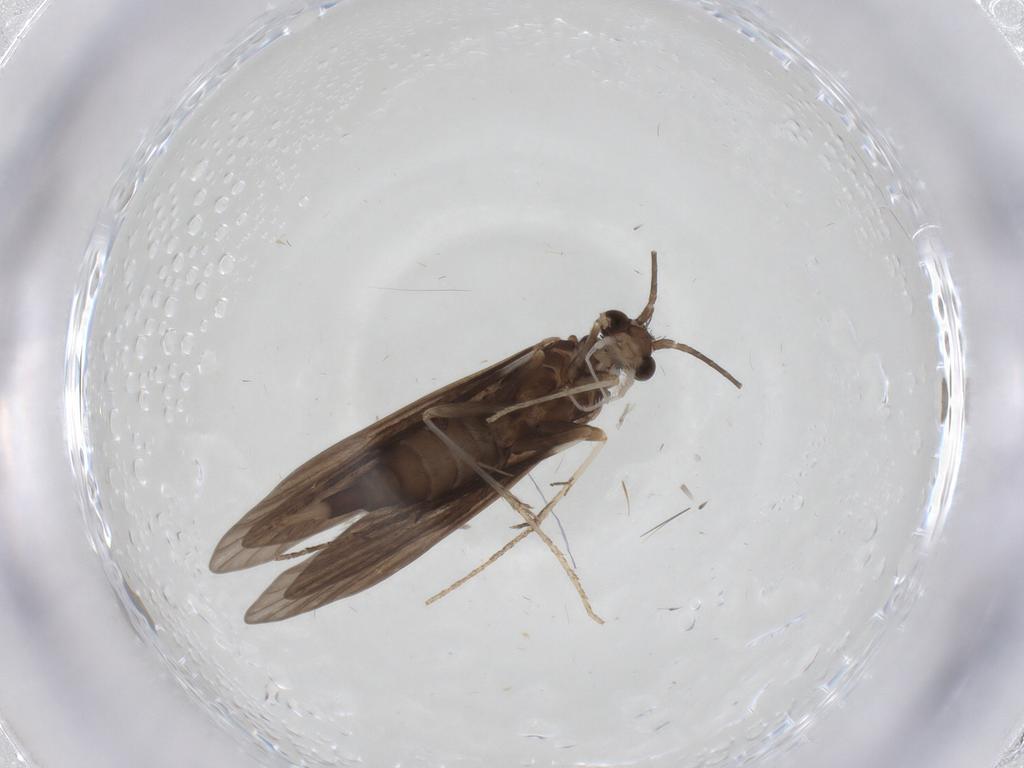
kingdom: Animalia
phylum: Arthropoda
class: Insecta
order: Trichoptera
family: Xiphocentronidae
